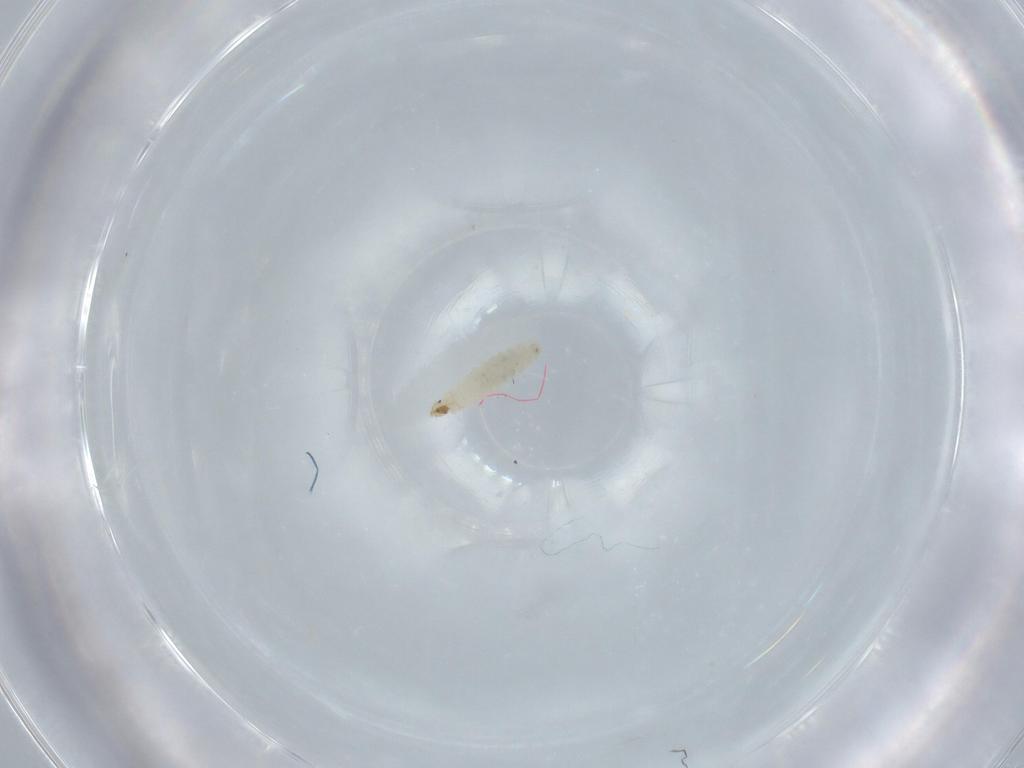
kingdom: Animalia
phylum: Arthropoda
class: Insecta
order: Diptera
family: Milichiidae
